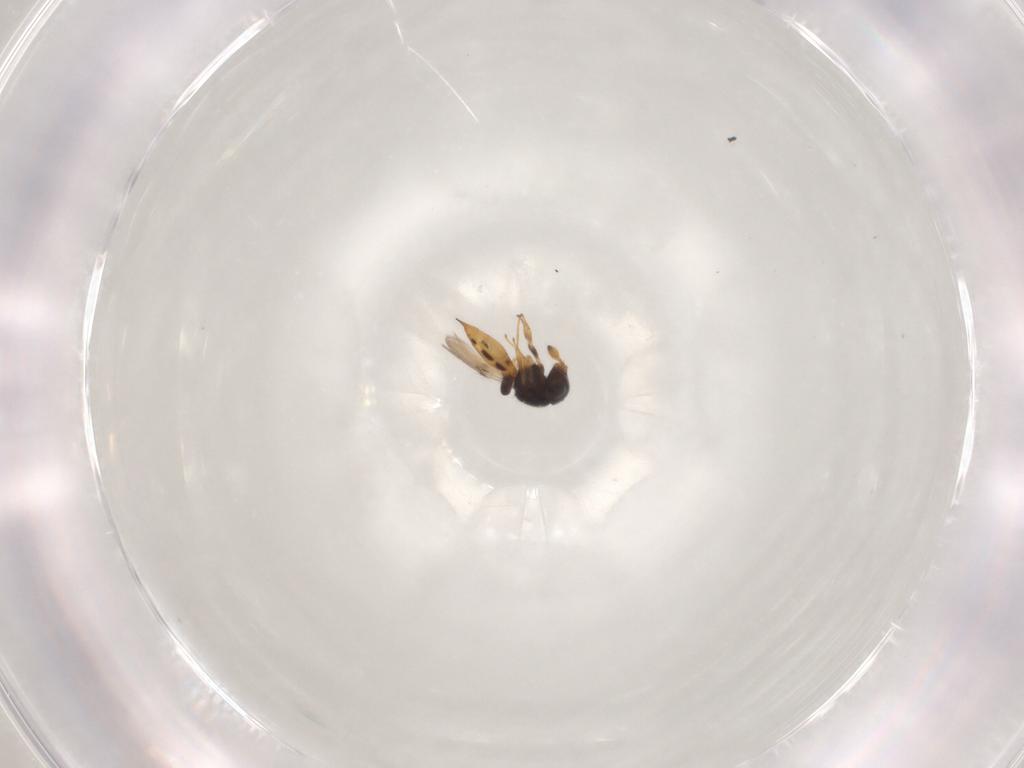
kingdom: Animalia
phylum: Arthropoda
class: Insecta
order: Hymenoptera
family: Scelionidae
